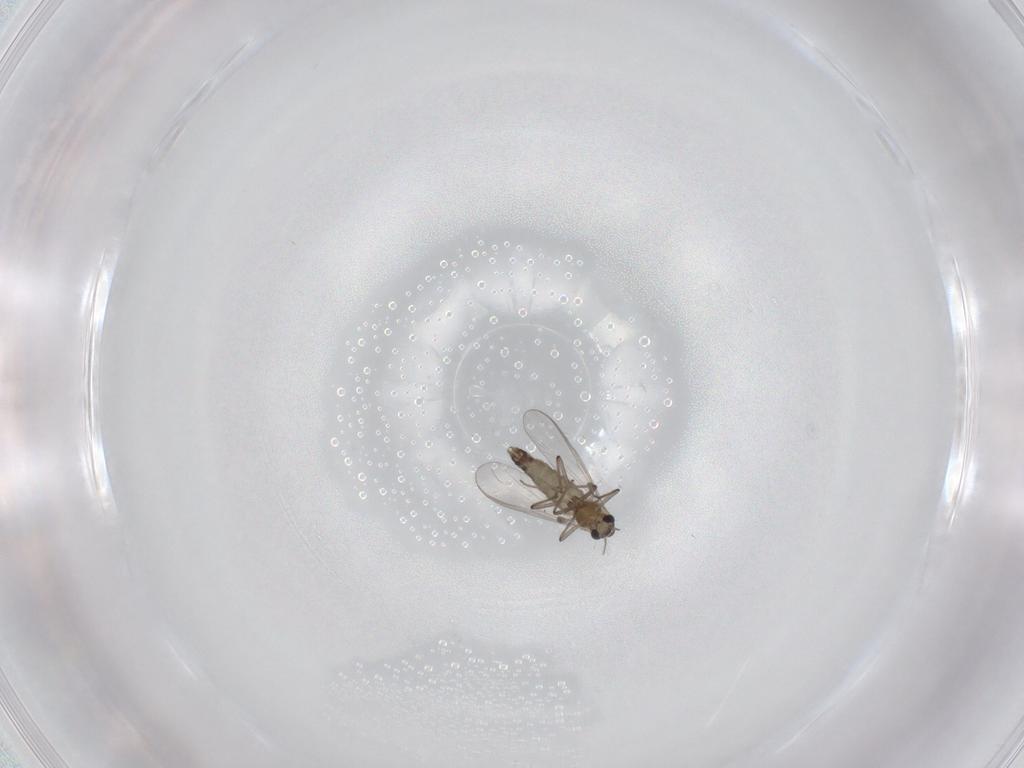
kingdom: Animalia
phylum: Arthropoda
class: Insecta
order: Diptera
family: Chironomidae
